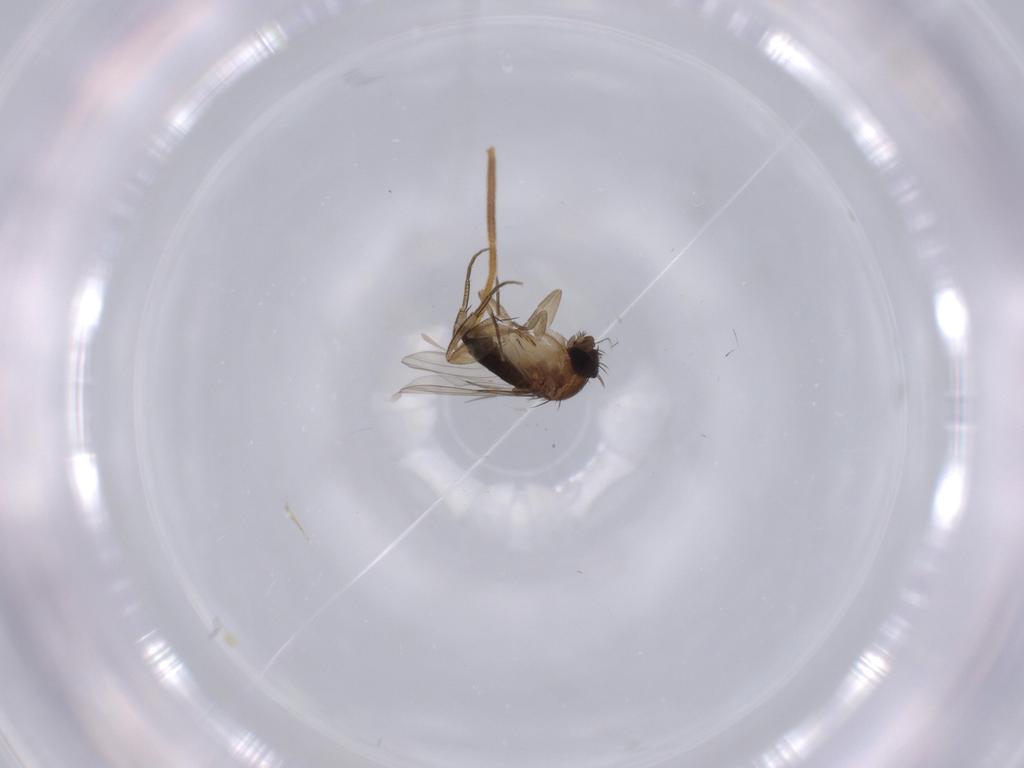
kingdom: Animalia
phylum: Arthropoda
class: Insecta
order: Diptera
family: Phoridae
